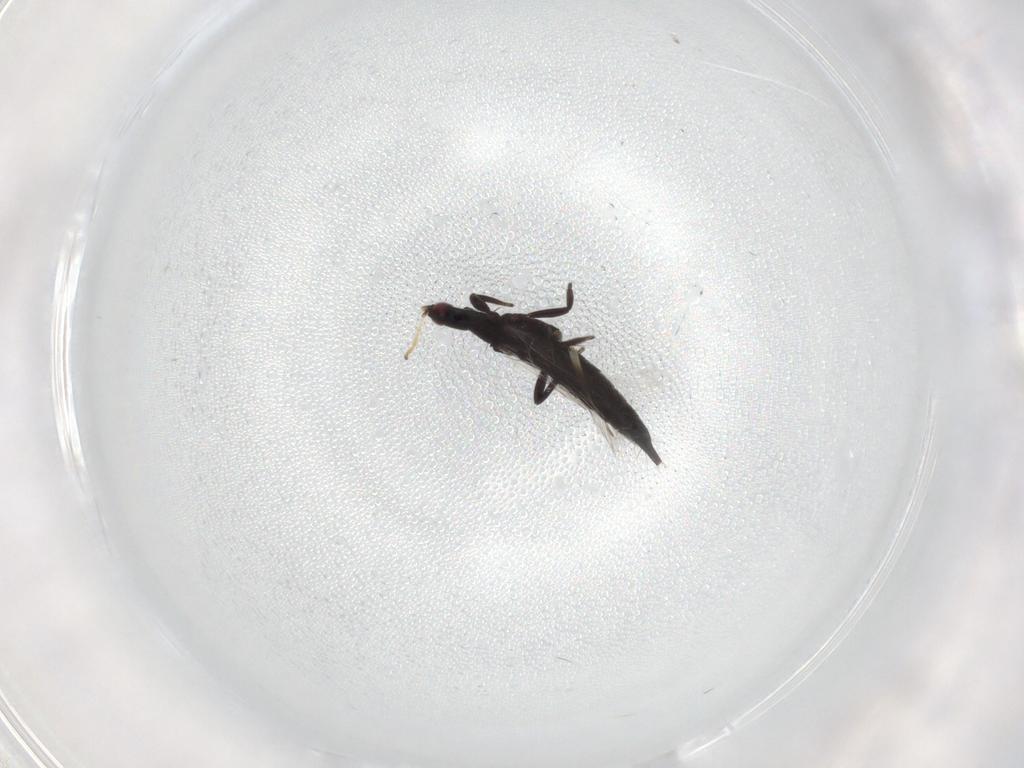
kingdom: Animalia
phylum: Arthropoda
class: Insecta
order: Thysanoptera
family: Phlaeothripidae
